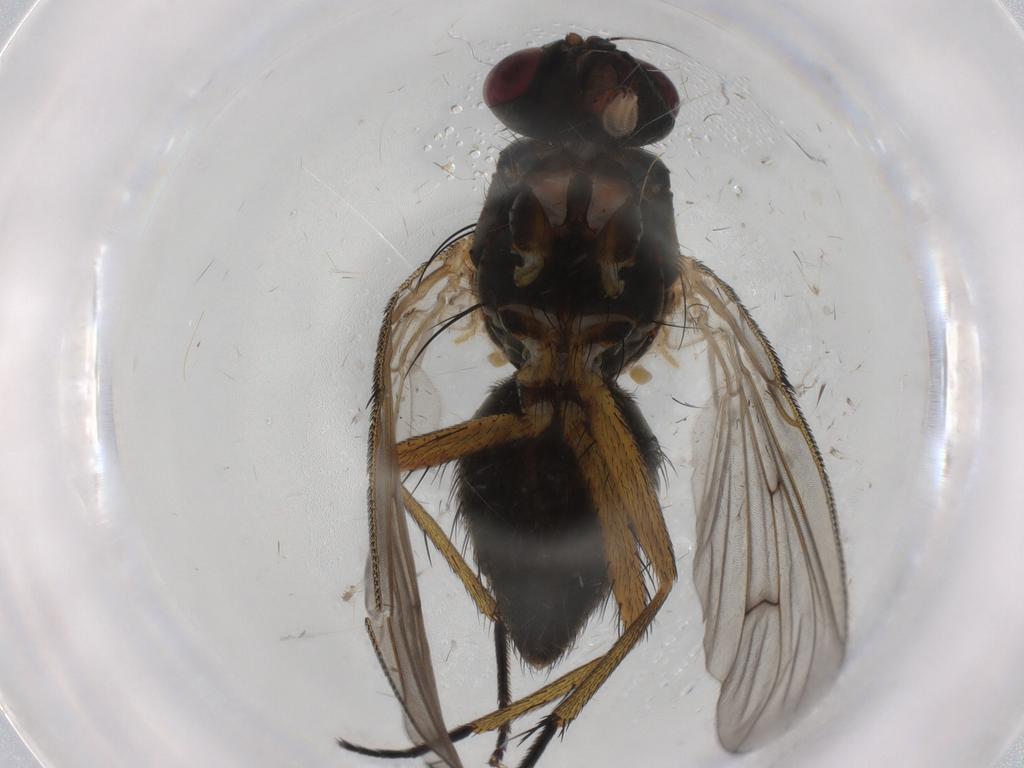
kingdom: Animalia
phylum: Arthropoda
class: Insecta
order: Diptera
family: Muscidae
